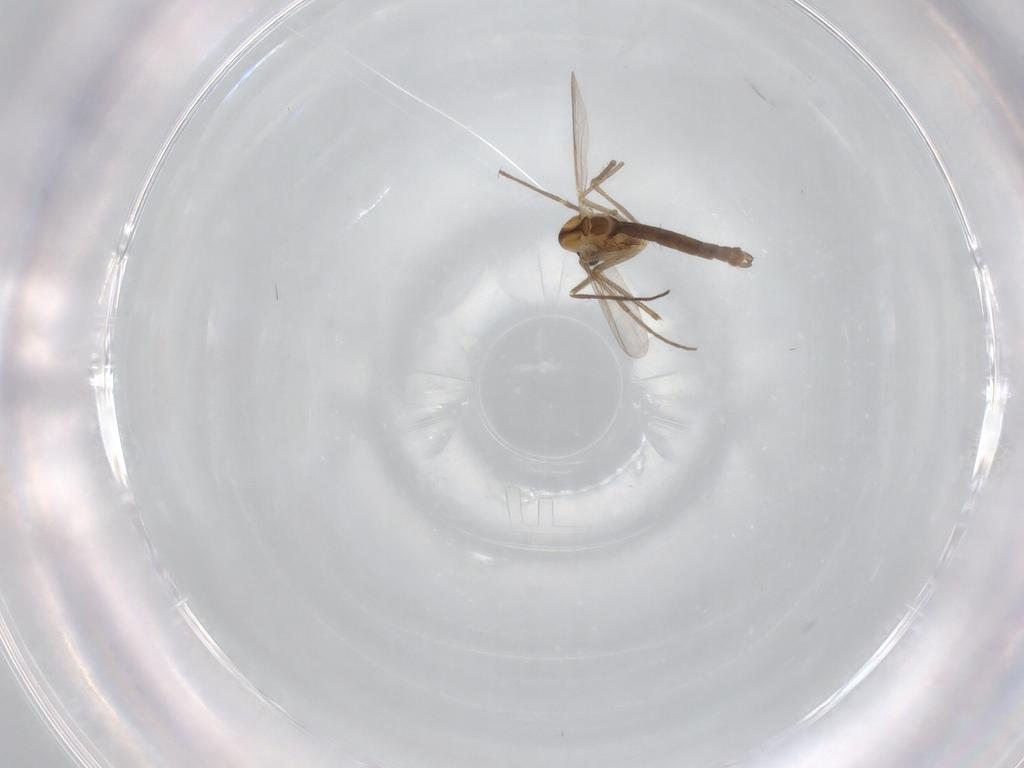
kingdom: Animalia
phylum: Arthropoda
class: Insecta
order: Diptera
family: Chironomidae
